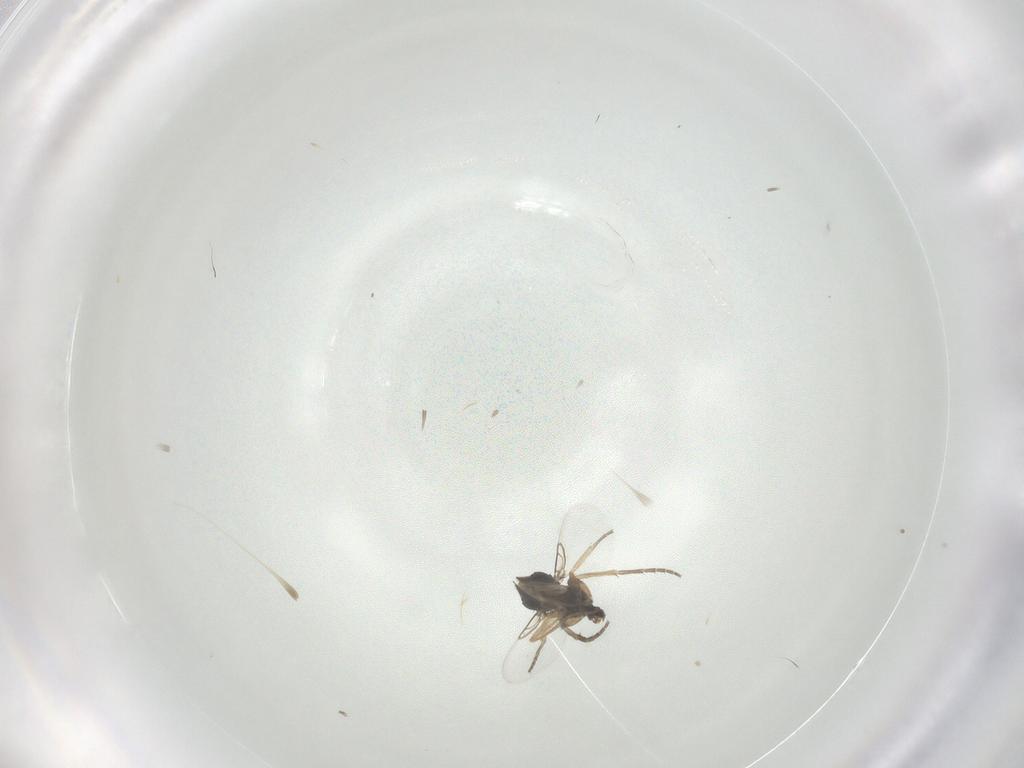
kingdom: Animalia
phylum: Arthropoda
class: Insecta
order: Diptera
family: Phoridae
